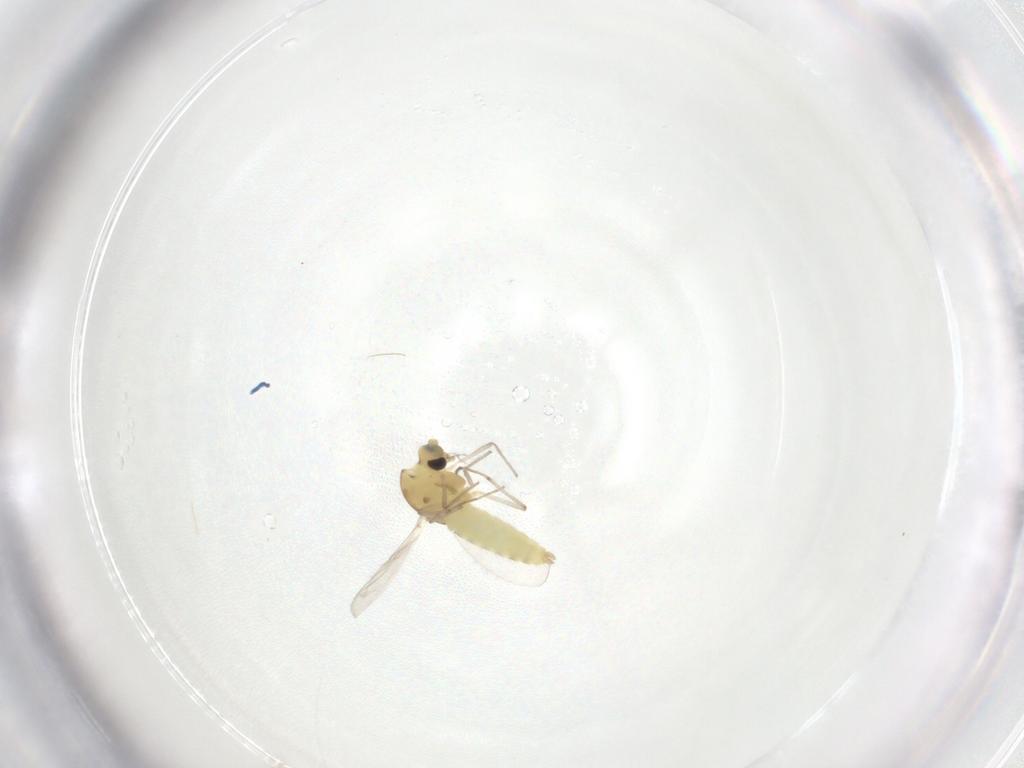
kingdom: Animalia
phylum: Arthropoda
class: Insecta
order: Diptera
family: Chironomidae
